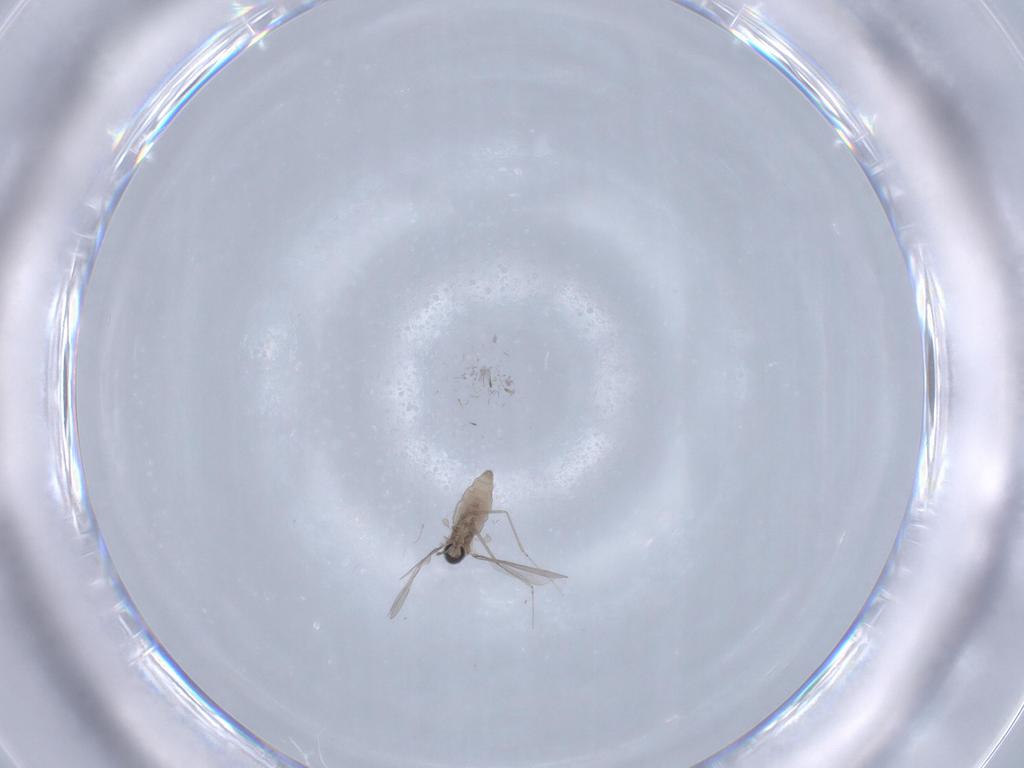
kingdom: Animalia
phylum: Arthropoda
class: Insecta
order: Diptera
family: Cecidomyiidae
